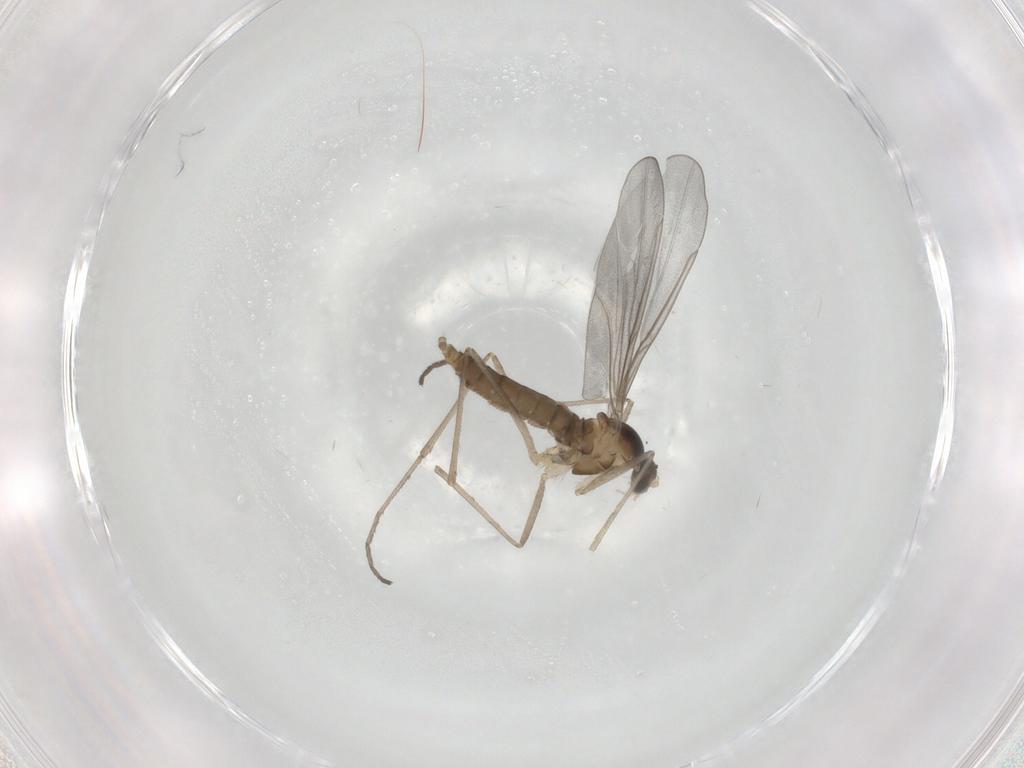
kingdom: Animalia
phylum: Arthropoda
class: Insecta
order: Diptera
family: Cecidomyiidae
